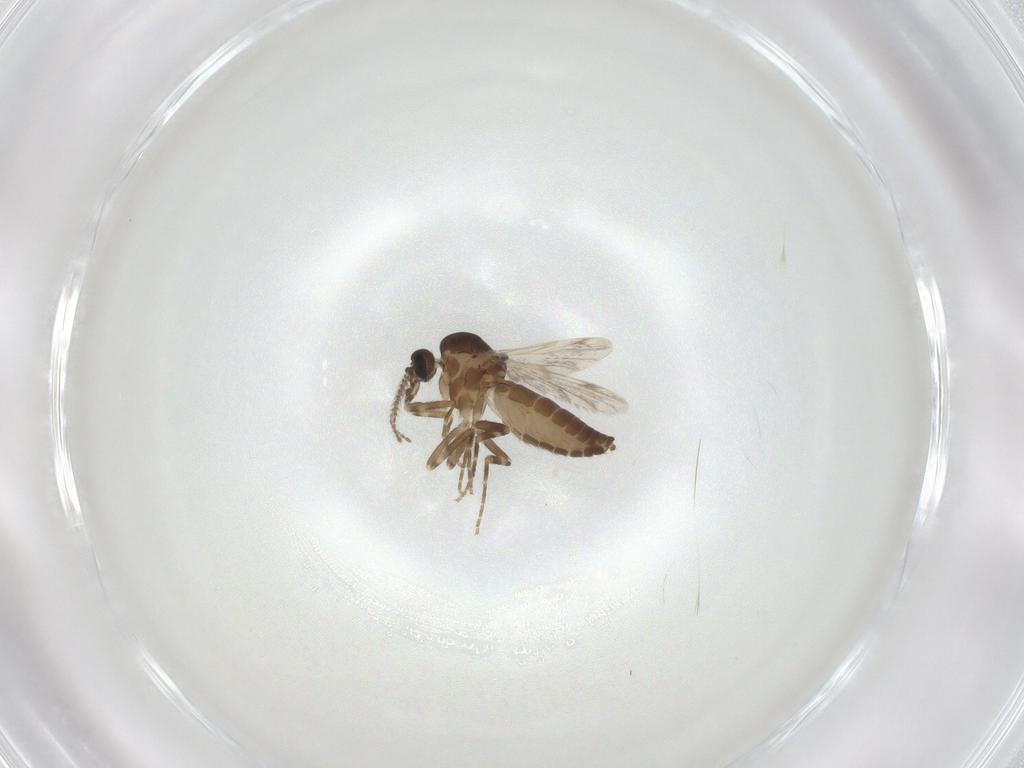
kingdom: Animalia
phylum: Arthropoda
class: Insecta
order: Diptera
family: Ceratopogonidae
